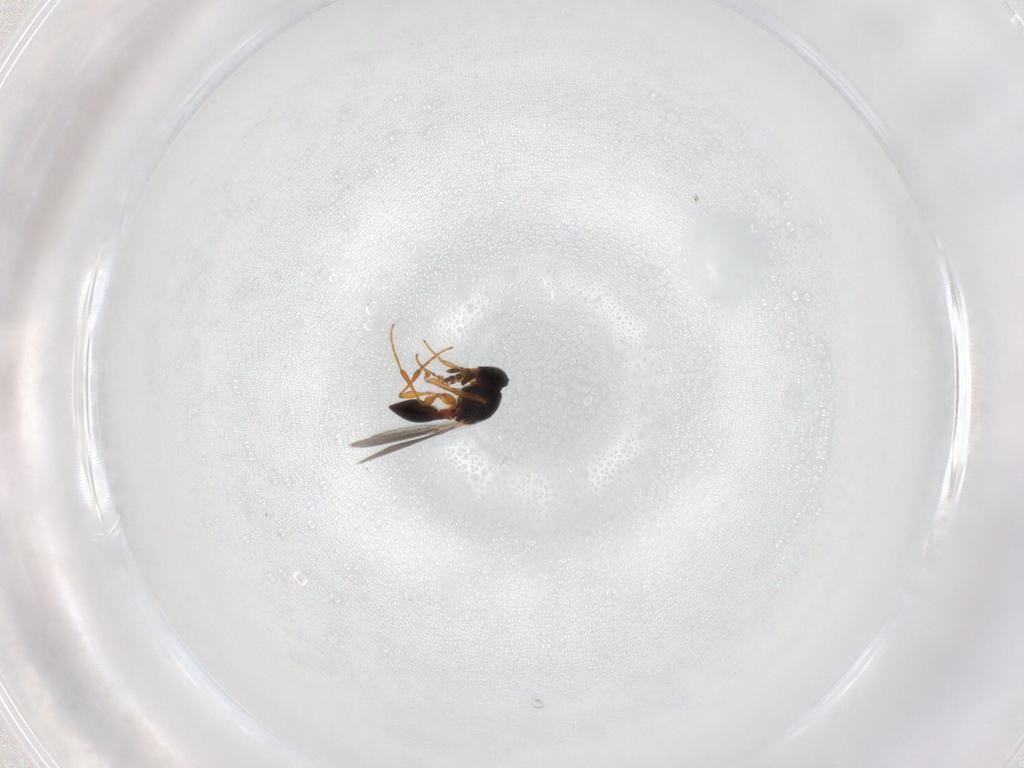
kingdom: Animalia
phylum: Arthropoda
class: Insecta
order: Hymenoptera
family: Platygastridae
